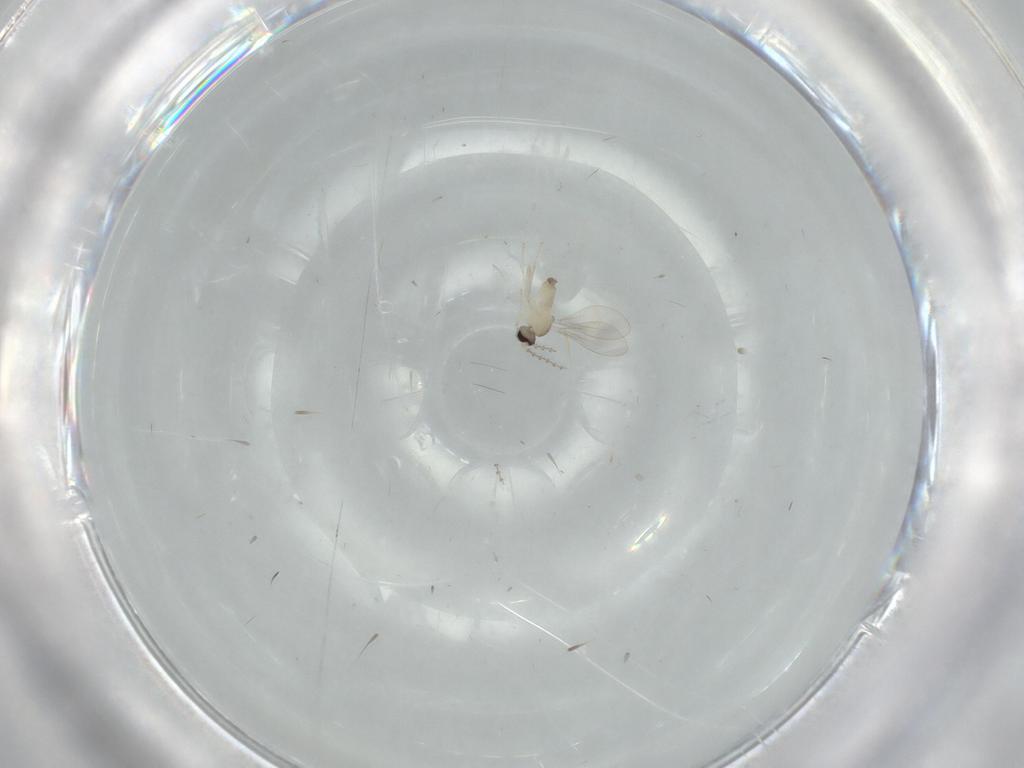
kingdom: Animalia
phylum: Arthropoda
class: Insecta
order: Diptera
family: Cecidomyiidae
